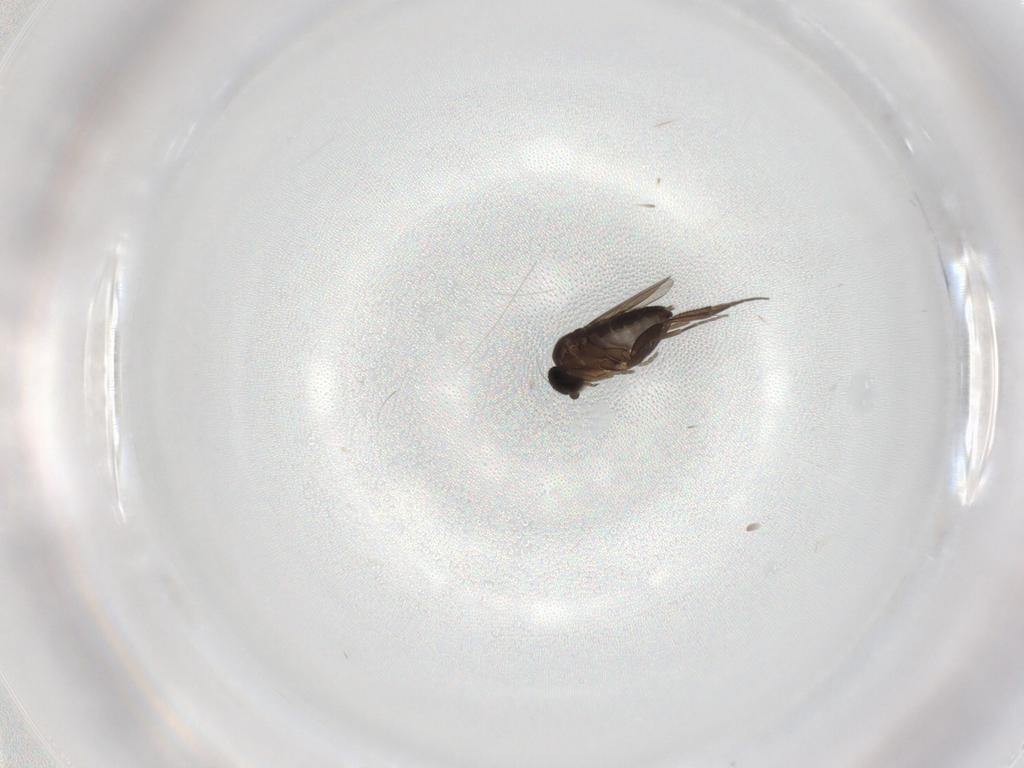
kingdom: Animalia
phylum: Arthropoda
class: Insecta
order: Diptera
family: Phoridae
